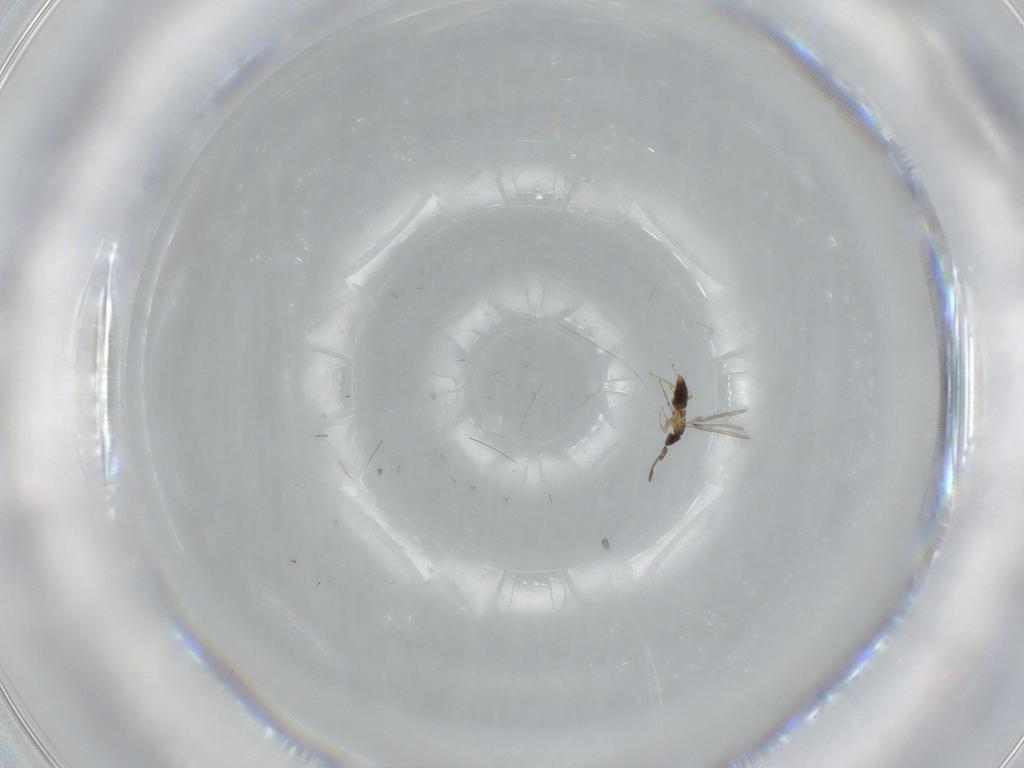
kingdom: Animalia
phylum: Arthropoda
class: Insecta
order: Hymenoptera
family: Mymaridae
